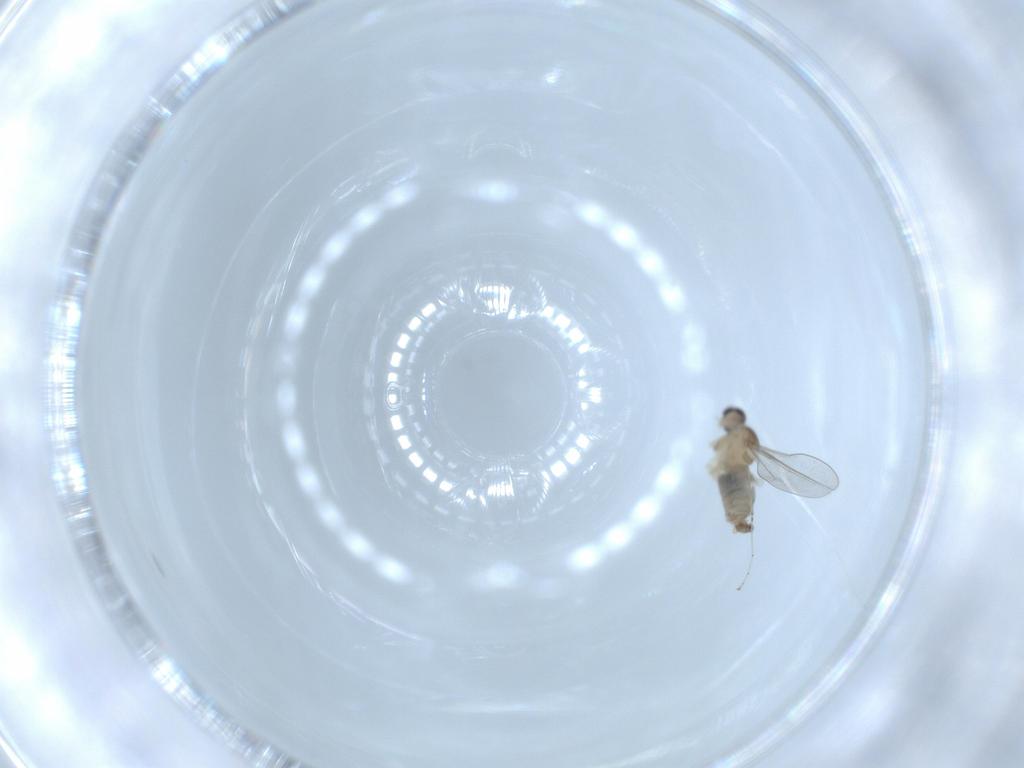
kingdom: Animalia
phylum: Arthropoda
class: Insecta
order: Diptera
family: Cecidomyiidae
